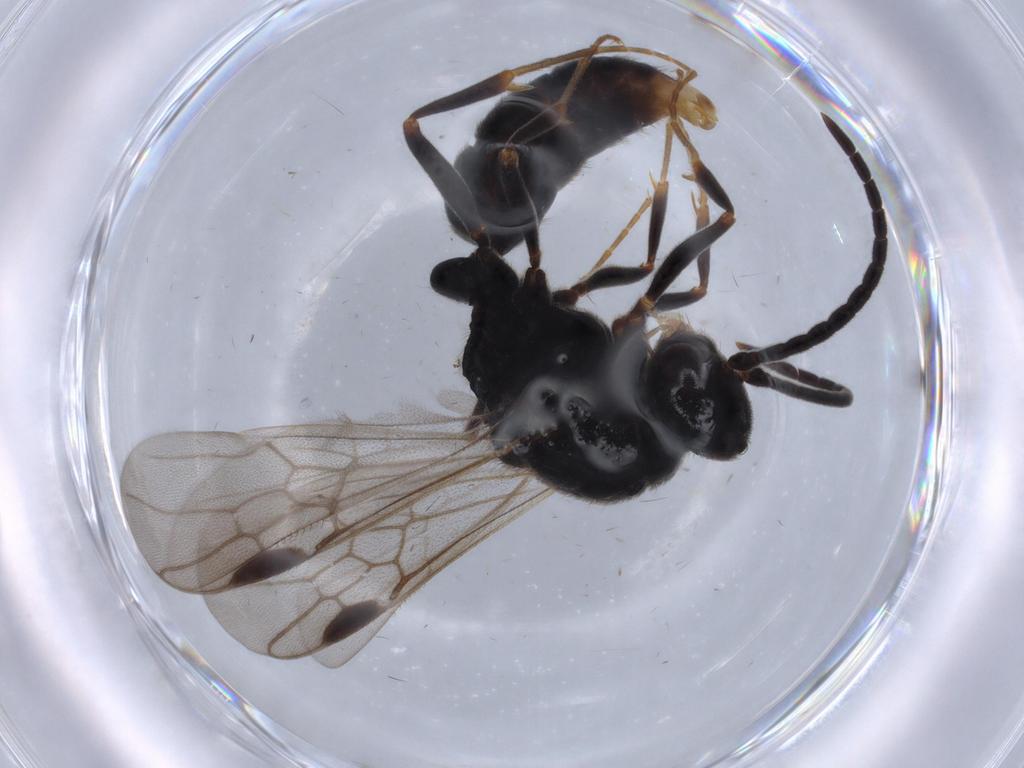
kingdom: Animalia
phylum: Arthropoda
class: Insecta
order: Hymenoptera
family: Formicidae
